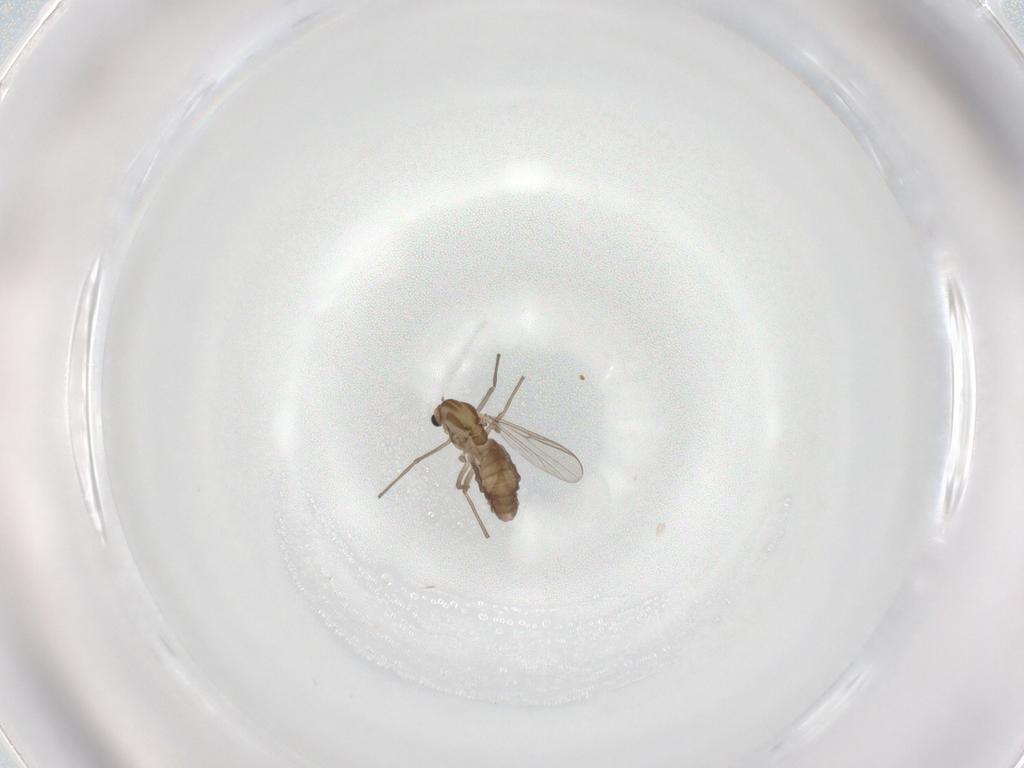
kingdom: Animalia
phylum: Arthropoda
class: Insecta
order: Diptera
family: Chironomidae
